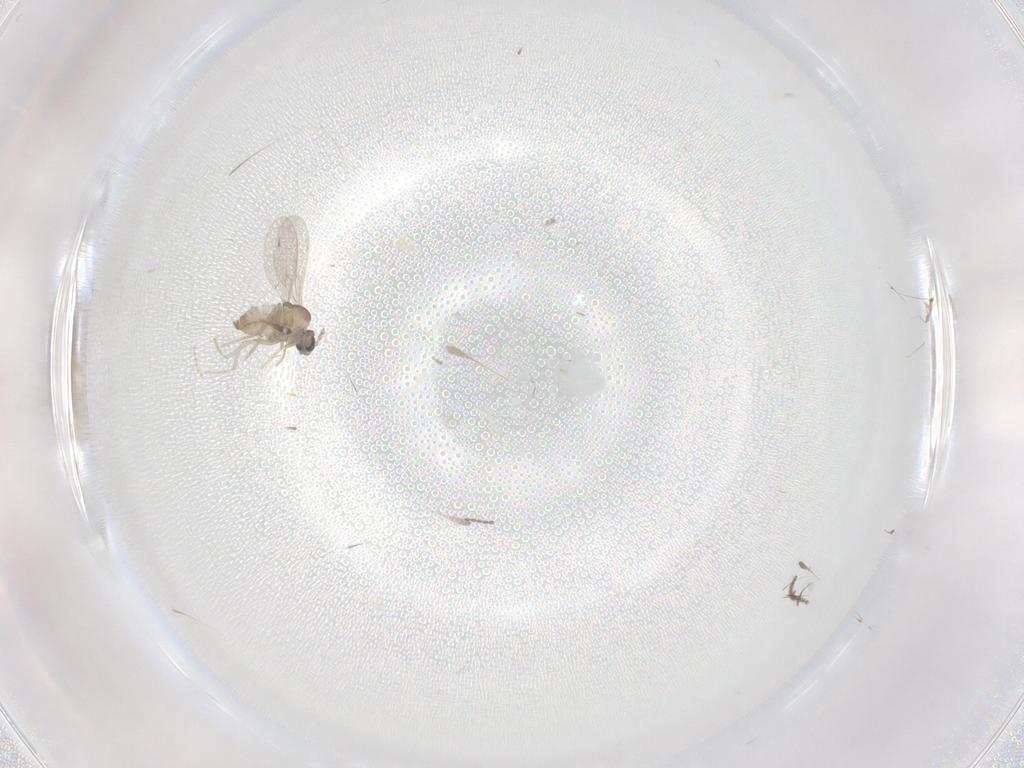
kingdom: Animalia
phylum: Arthropoda
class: Insecta
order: Diptera
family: Cecidomyiidae
